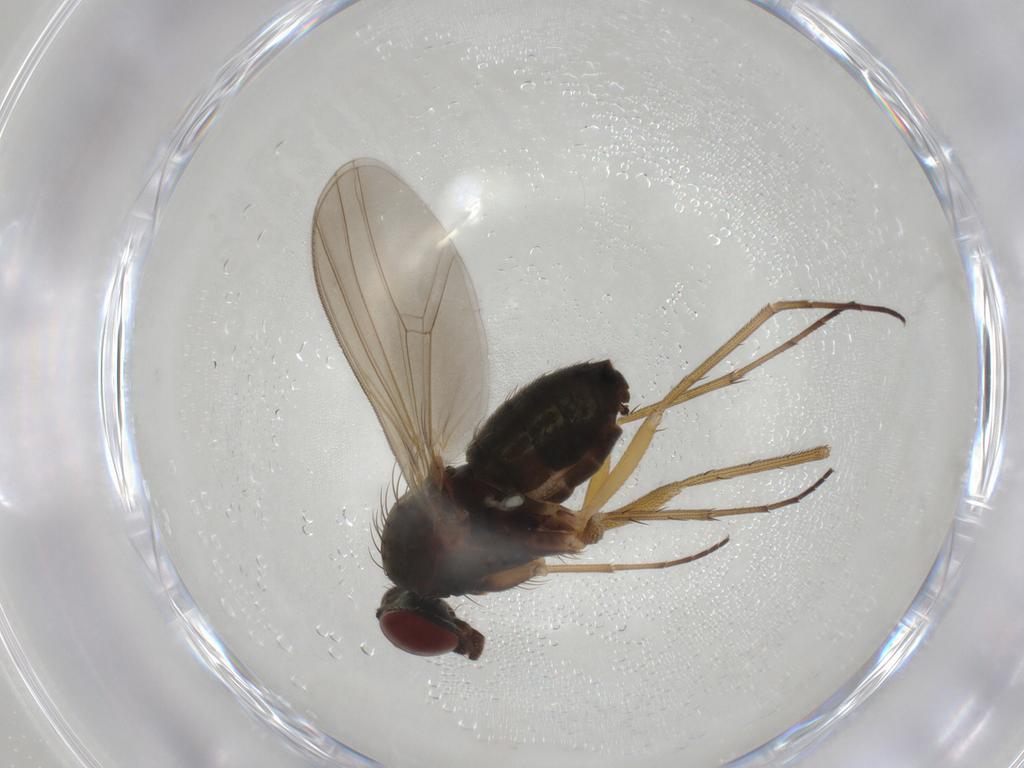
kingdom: Animalia
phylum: Arthropoda
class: Insecta
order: Diptera
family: Dolichopodidae
